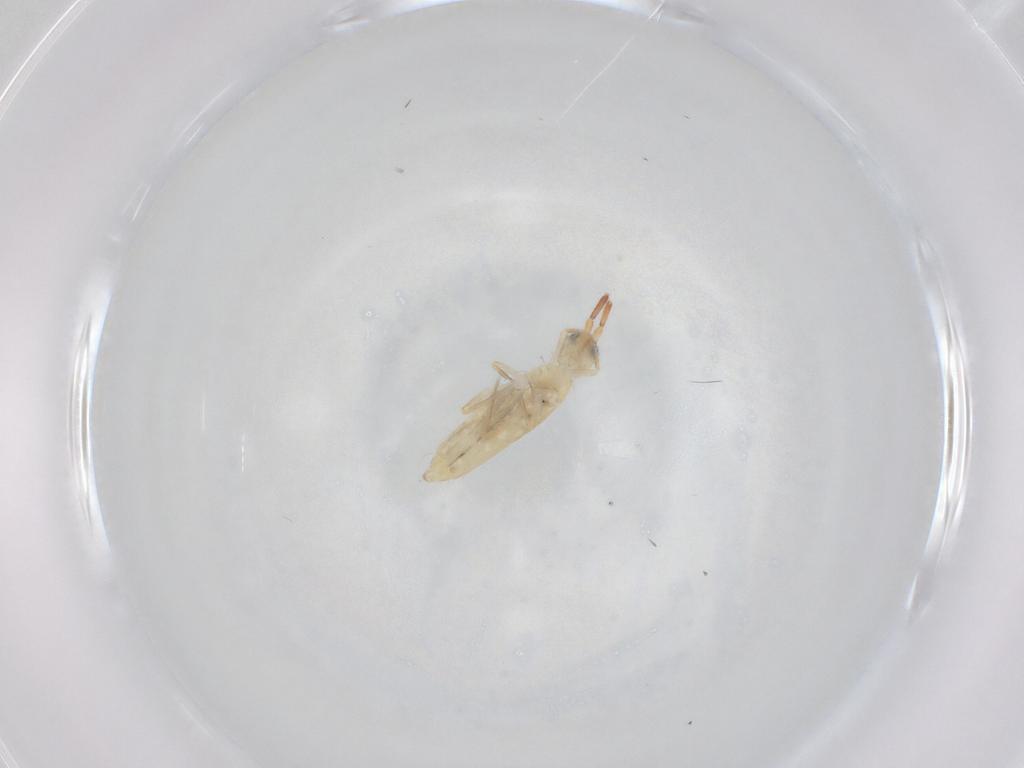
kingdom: Animalia
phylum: Arthropoda
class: Collembola
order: Entomobryomorpha
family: Entomobryidae
